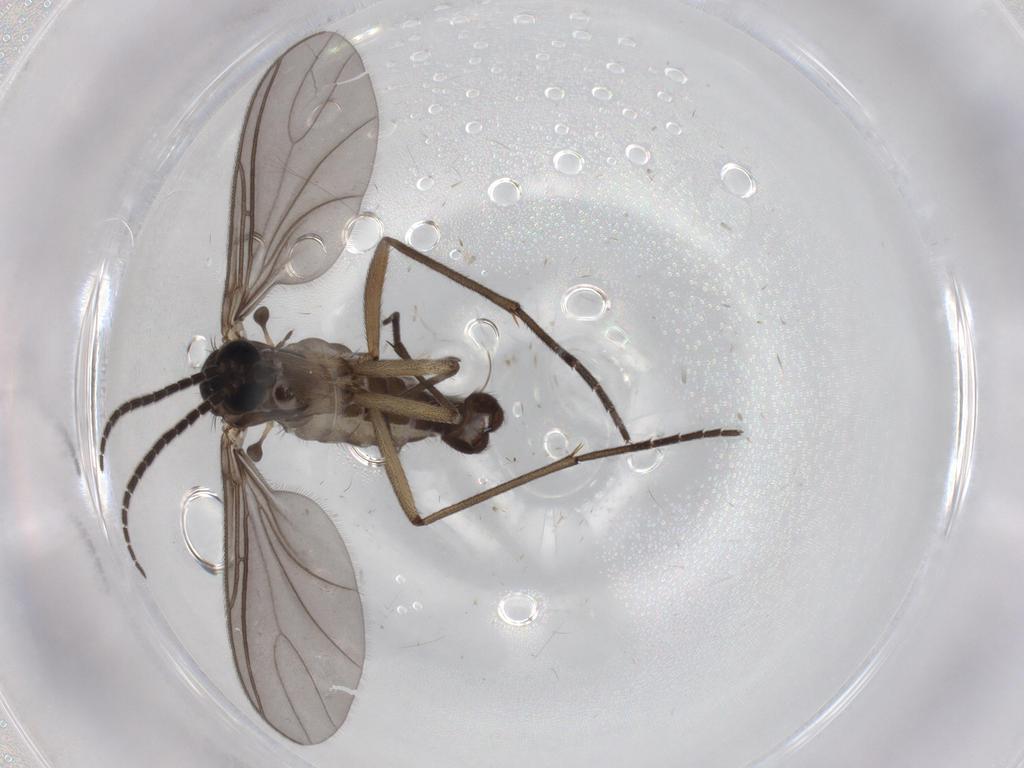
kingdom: Animalia
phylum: Arthropoda
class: Insecta
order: Diptera
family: Sciaridae
